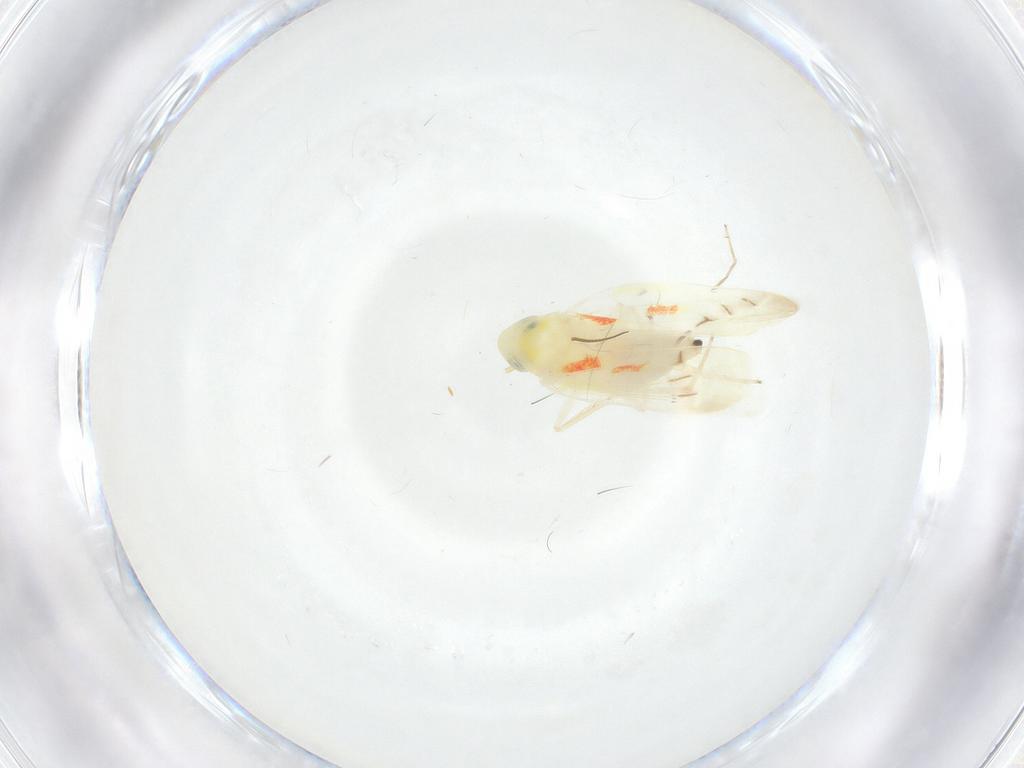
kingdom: Animalia
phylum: Arthropoda
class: Insecta
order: Hemiptera
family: Cicadellidae
